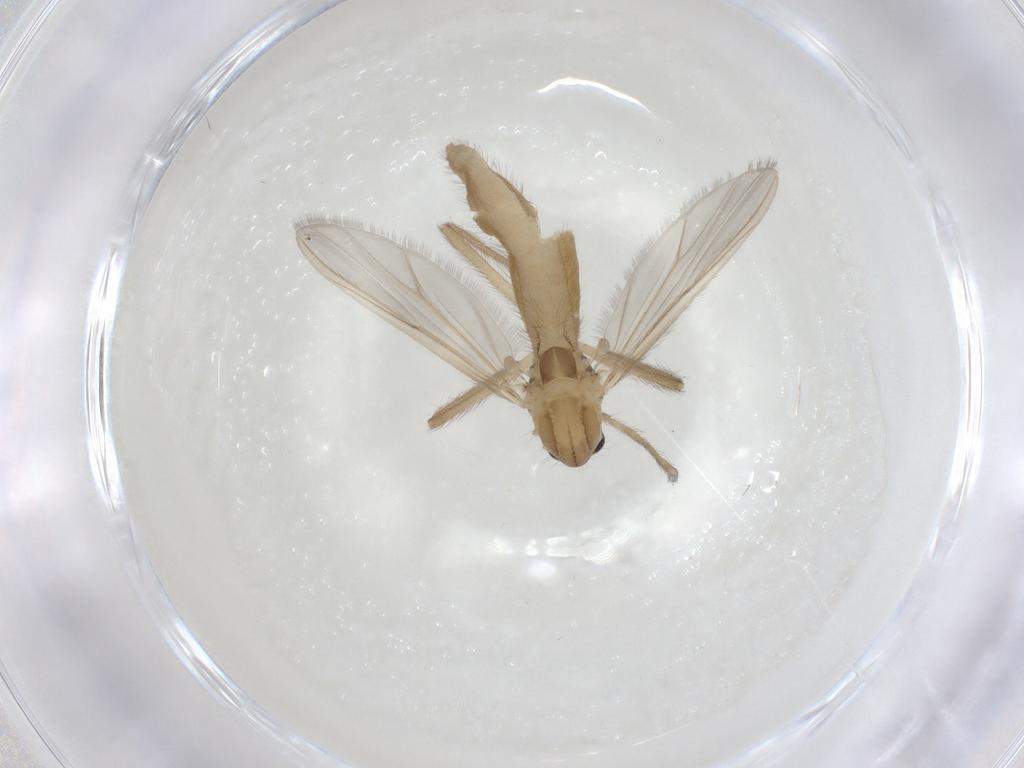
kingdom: Animalia
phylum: Arthropoda
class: Insecta
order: Diptera
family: Chironomidae
